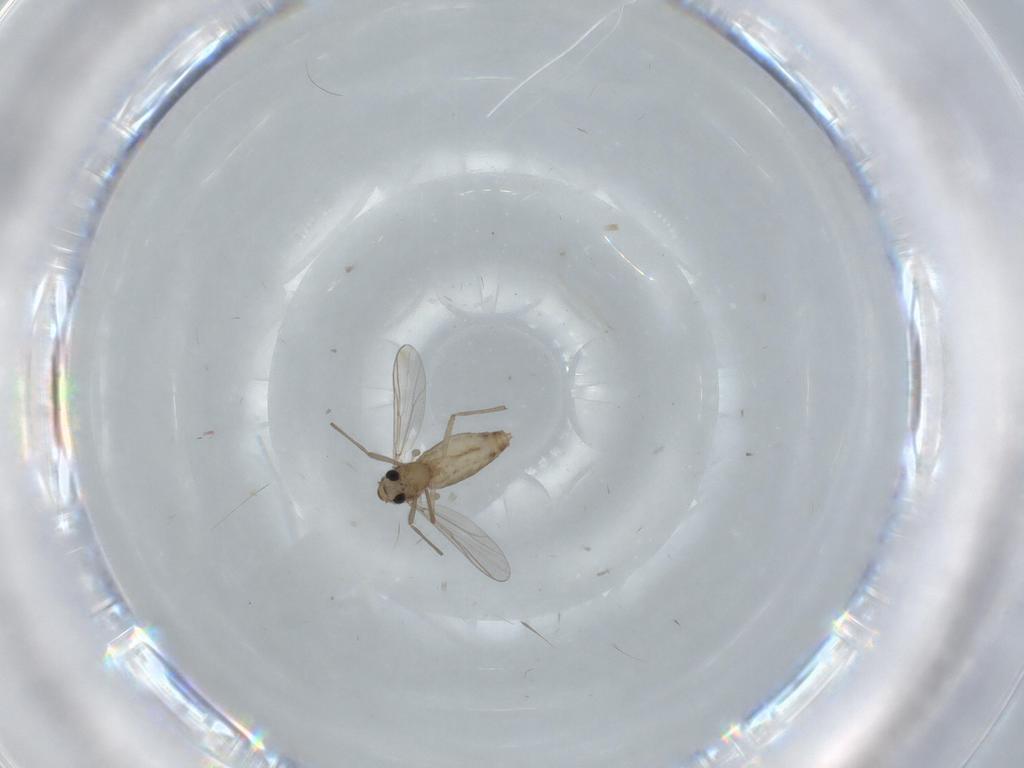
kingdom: Animalia
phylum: Arthropoda
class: Insecta
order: Diptera
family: Chironomidae
